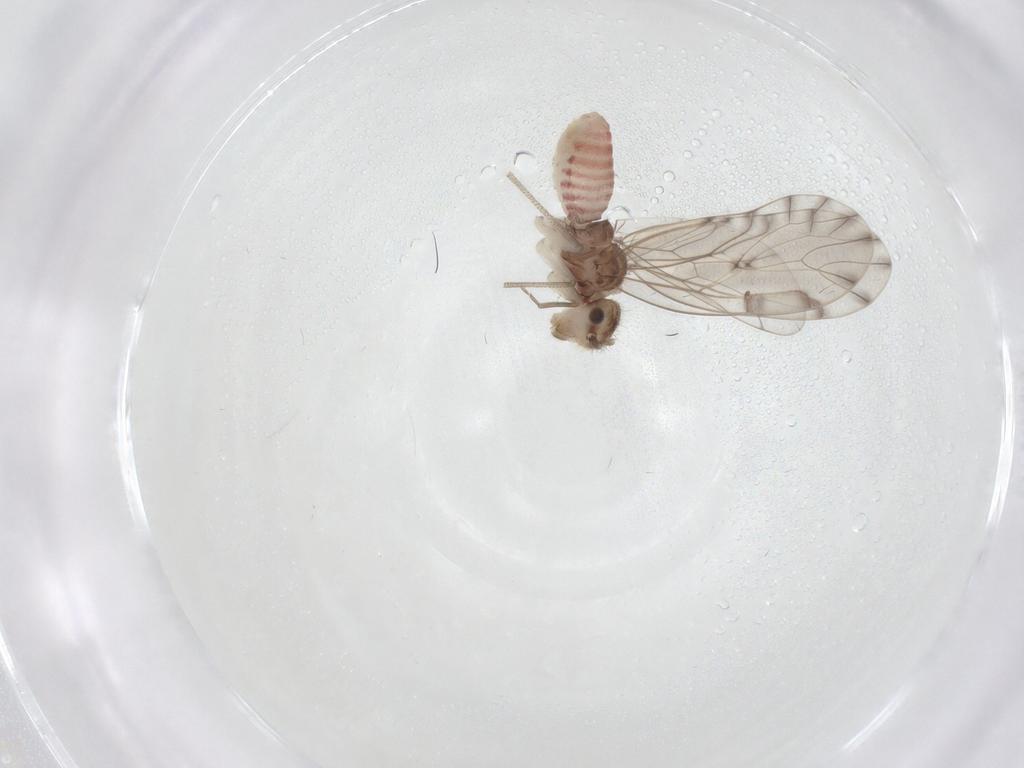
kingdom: Animalia
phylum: Arthropoda
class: Insecta
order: Psocodea
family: Ectopsocidae
